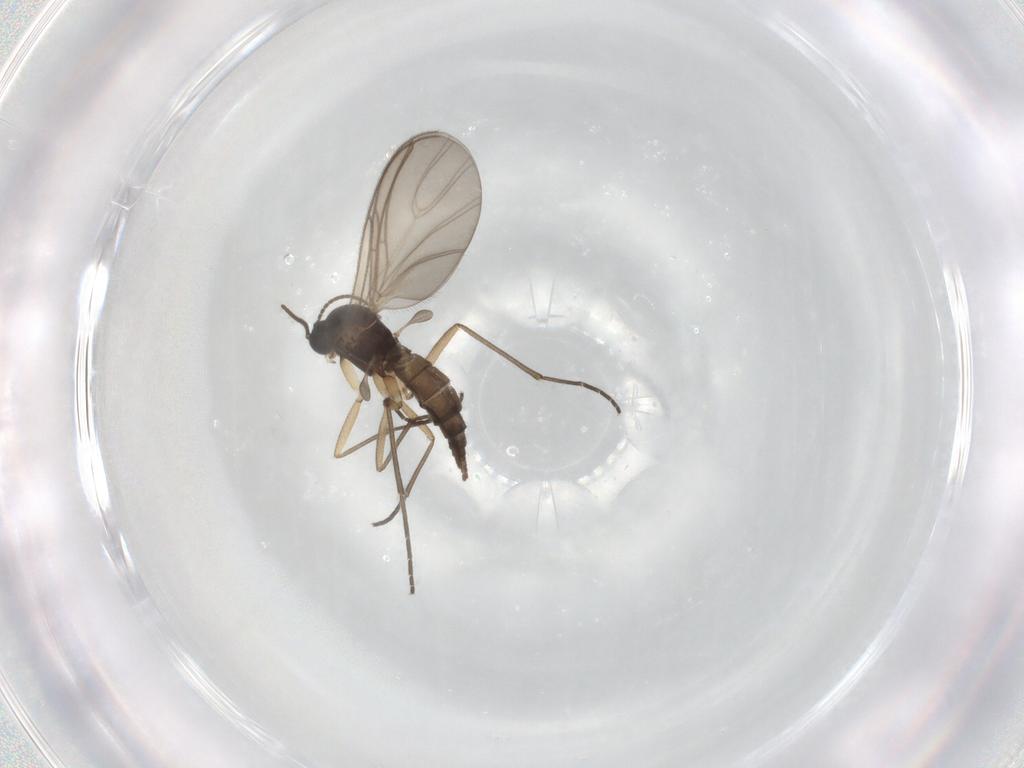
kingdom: Animalia
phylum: Arthropoda
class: Insecta
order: Diptera
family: Sciaridae
